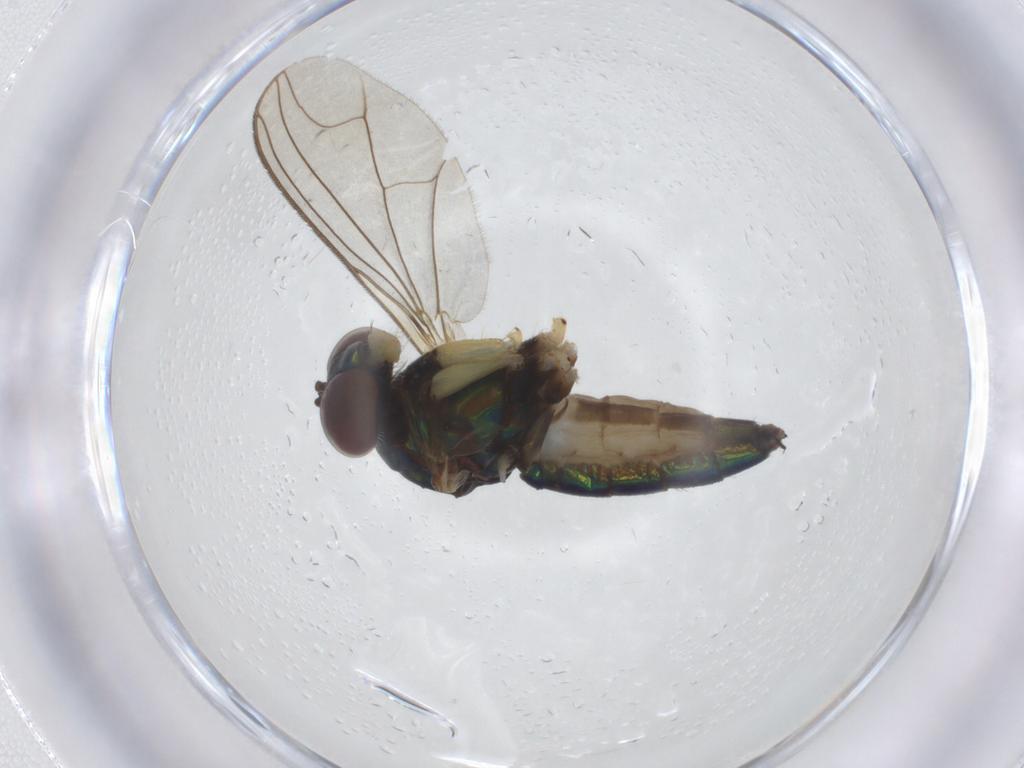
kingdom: Animalia
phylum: Arthropoda
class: Insecta
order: Diptera
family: Dolichopodidae
